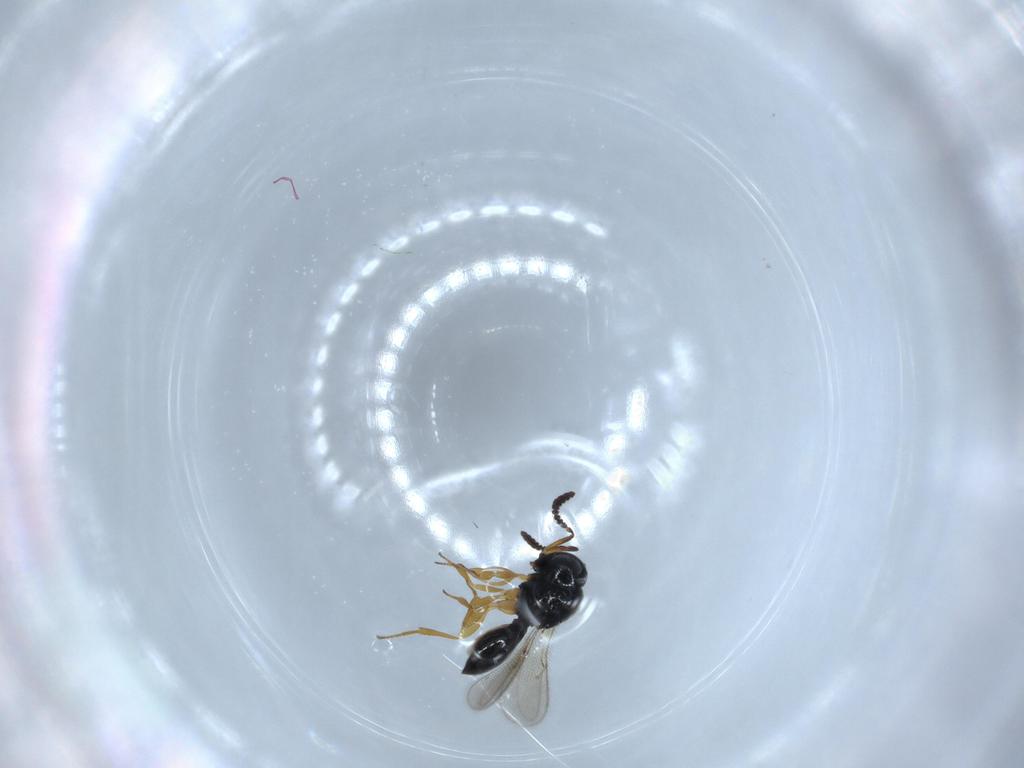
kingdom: Animalia
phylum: Arthropoda
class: Insecta
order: Hymenoptera
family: Scelionidae
